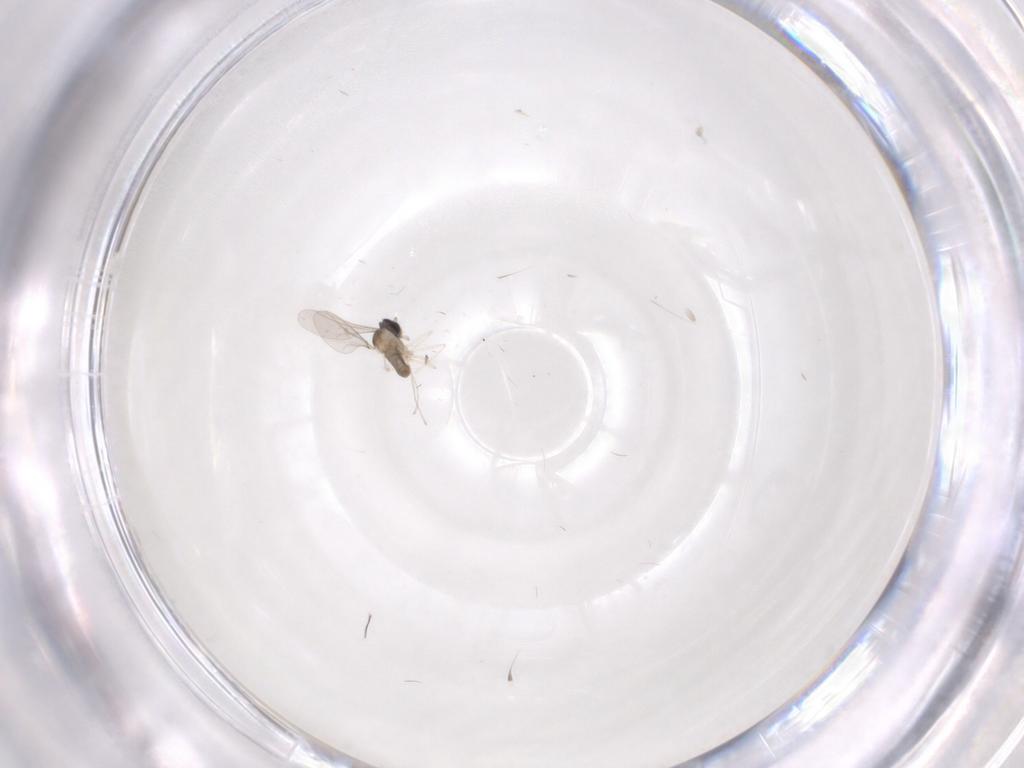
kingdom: Animalia
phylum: Arthropoda
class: Insecta
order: Diptera
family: Cecidomyiidae
